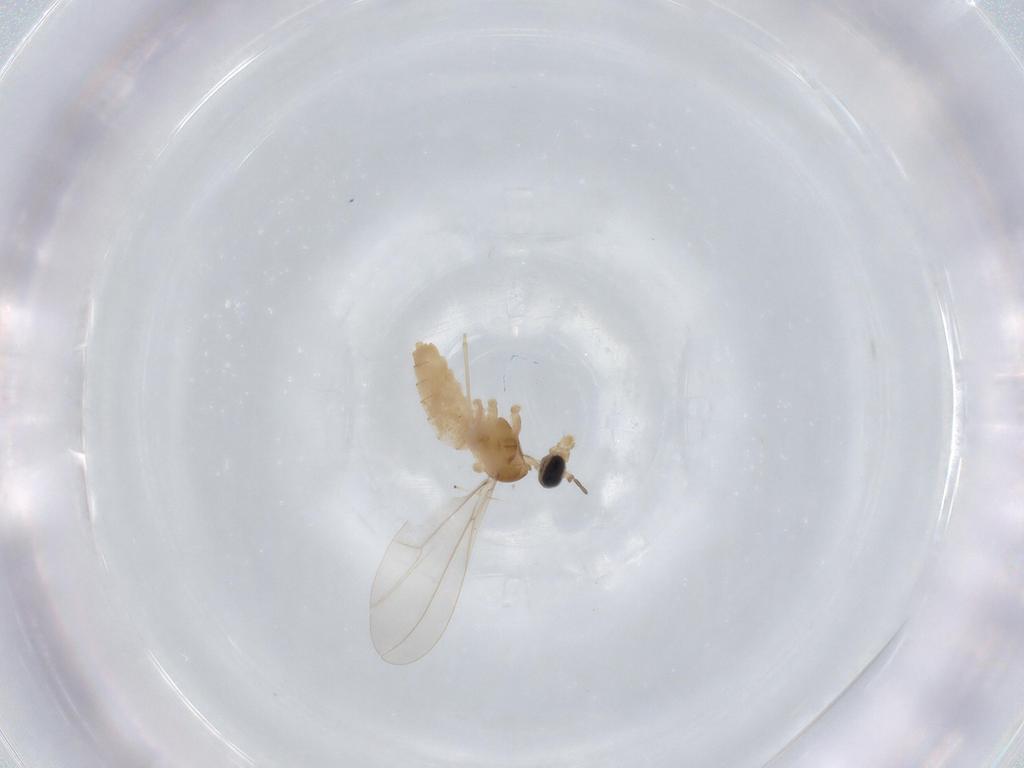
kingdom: Animalia
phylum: Arthropoda
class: Insecta
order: Diptera
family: Cecidomyiidae
